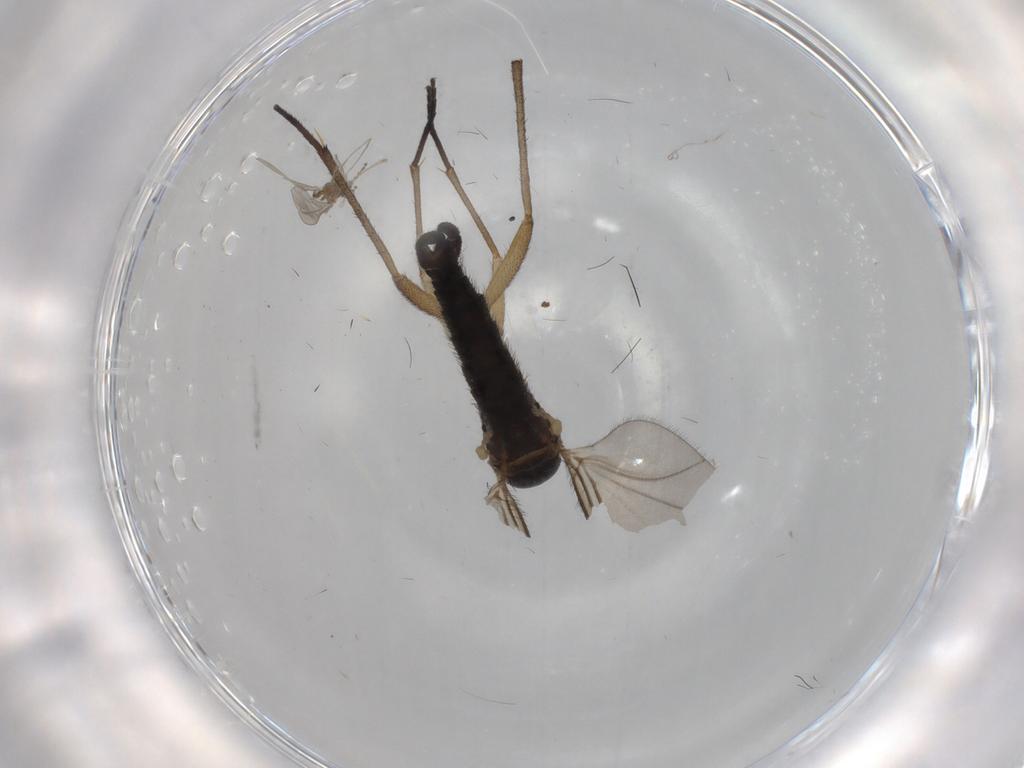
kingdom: Animalia
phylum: Arthropoda
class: Insecta
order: Diptera
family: Sciaridae
